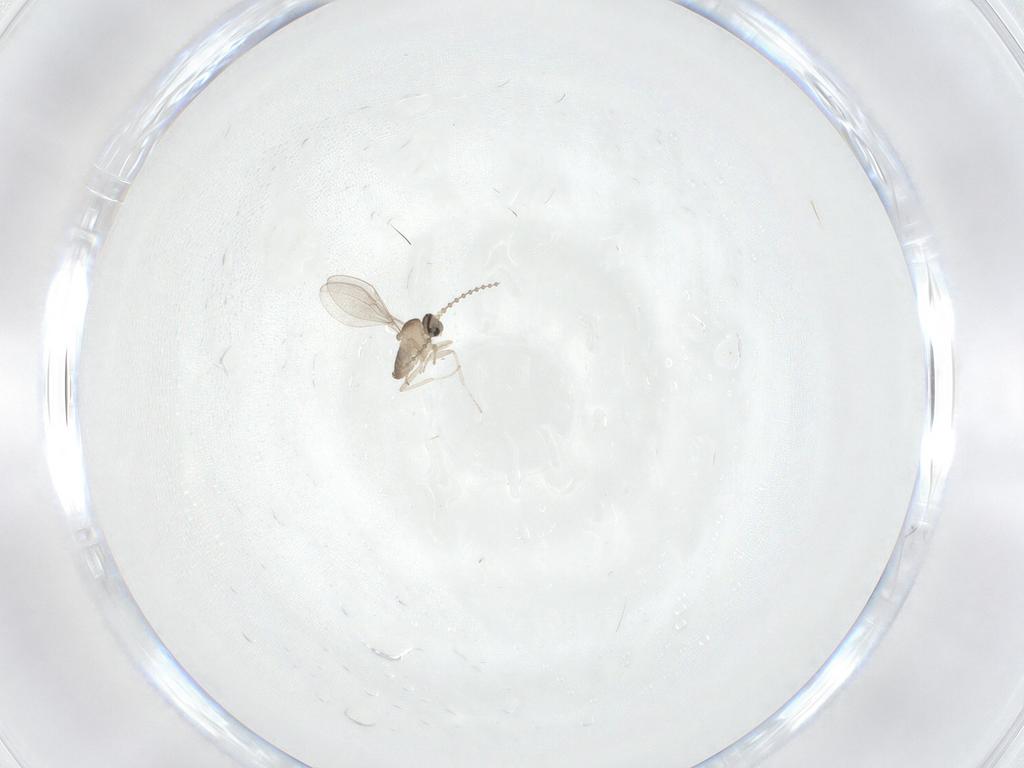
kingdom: Animalia
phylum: Arthropoda
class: Insecta
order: Diptera
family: Cecidomyiidae
